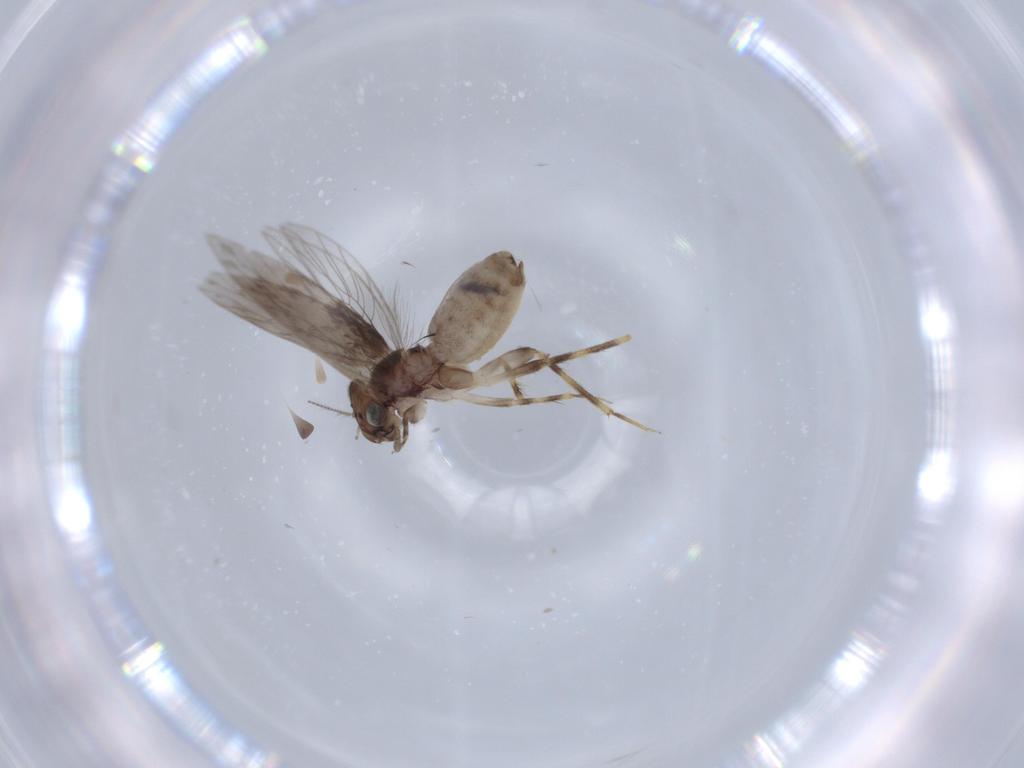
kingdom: Animalia
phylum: Arthropoda
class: Insecta
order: Psocodea
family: Lepidopsocidae
